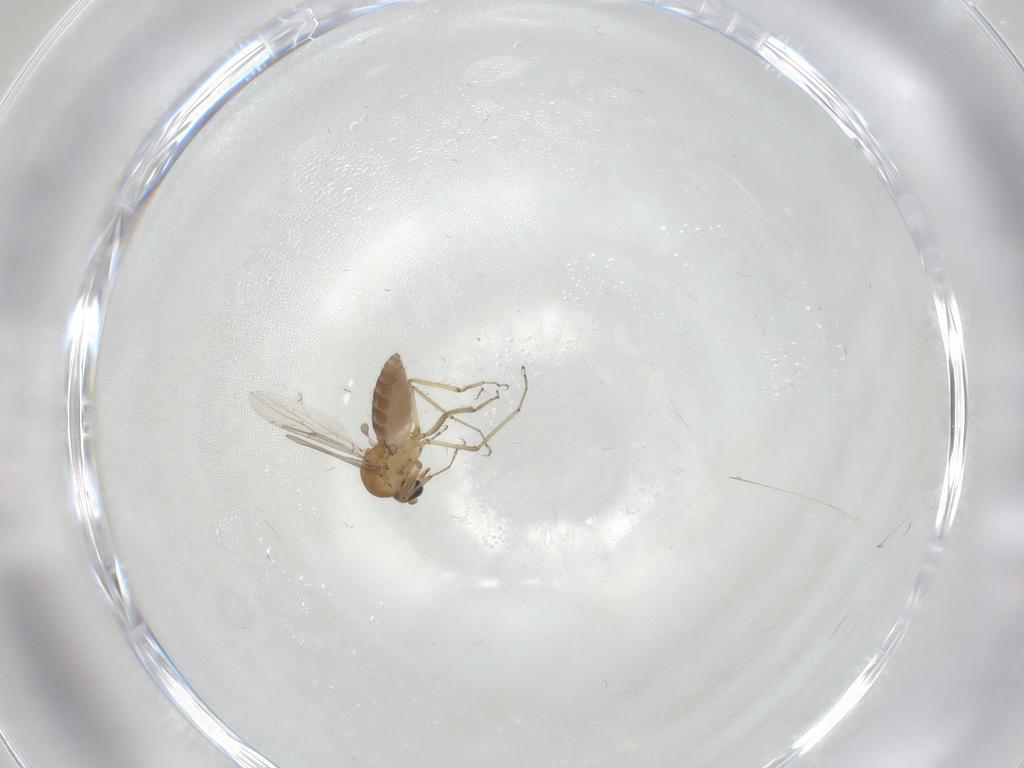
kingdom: Animalia
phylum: Arthropoda
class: Insecta
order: Diptera
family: Ceratopogonidae
